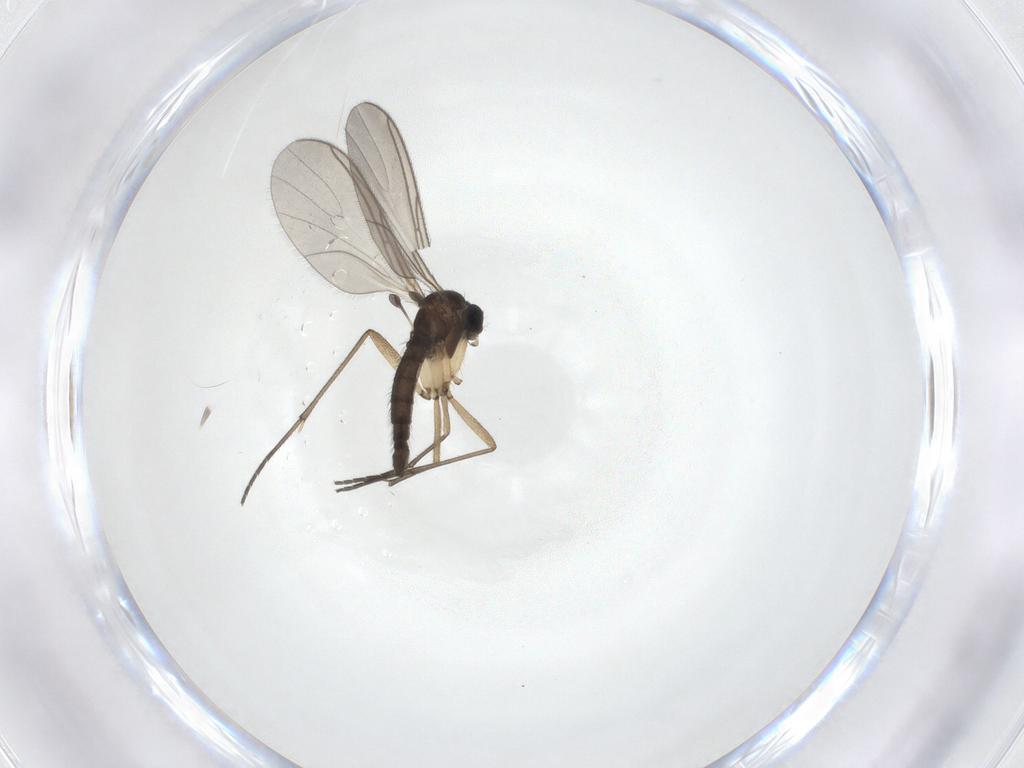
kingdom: Animalia
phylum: Arthropoda
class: Insecta
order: Diptera
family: Sciaridae
